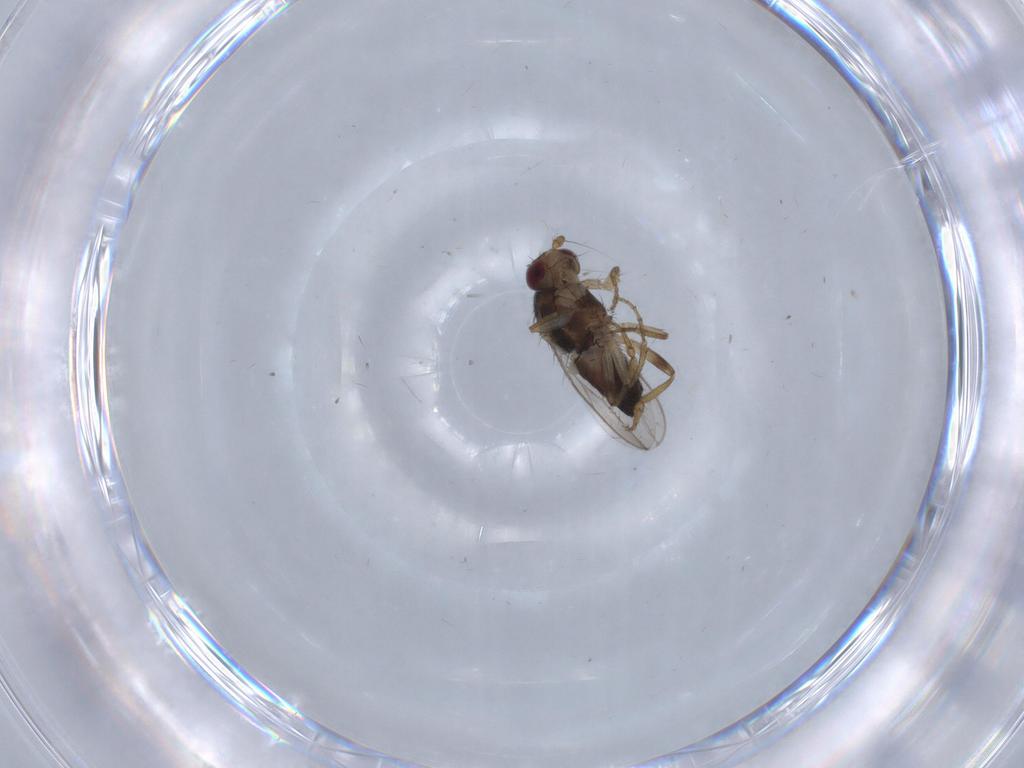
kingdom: Animalia
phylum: Arthropoda
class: Insecta
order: Diptera
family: Sphaeroceridae
